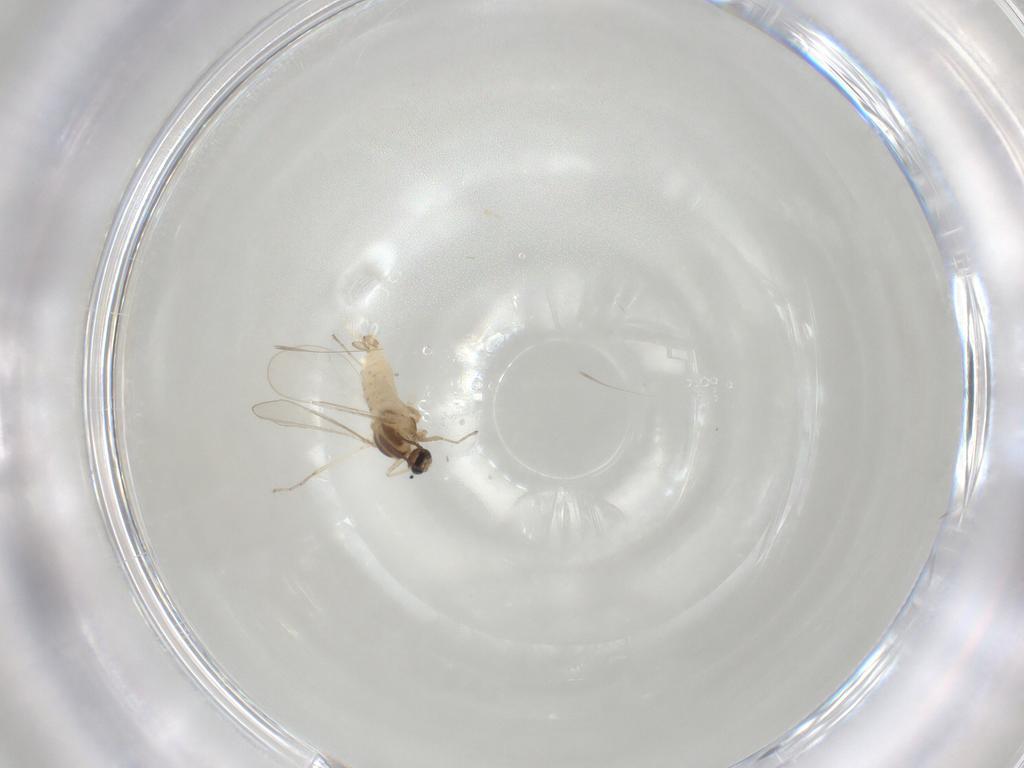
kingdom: Animalia
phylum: Arthropoda
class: Insecta
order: Diptera
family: Cecidomyiidae
